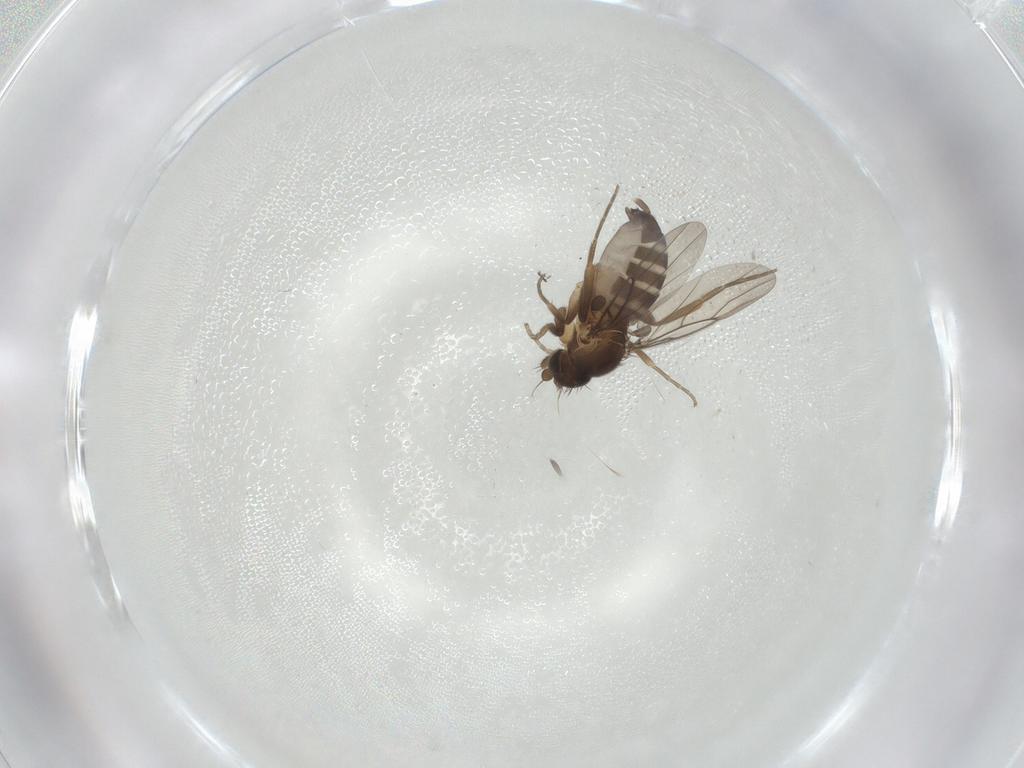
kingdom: Animalia
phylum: Arthropoda
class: Insecta
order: Diptera
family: Phoridae
